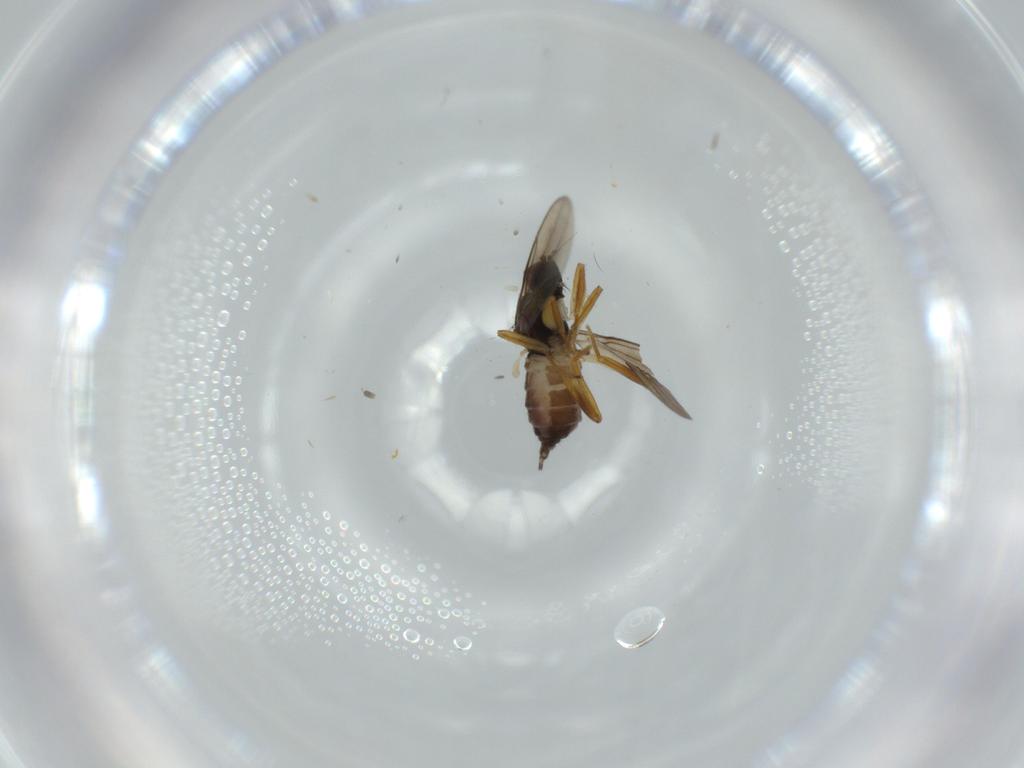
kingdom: Animalia
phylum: Arthropoda
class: Insecta
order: Diptera
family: Hybotidae
